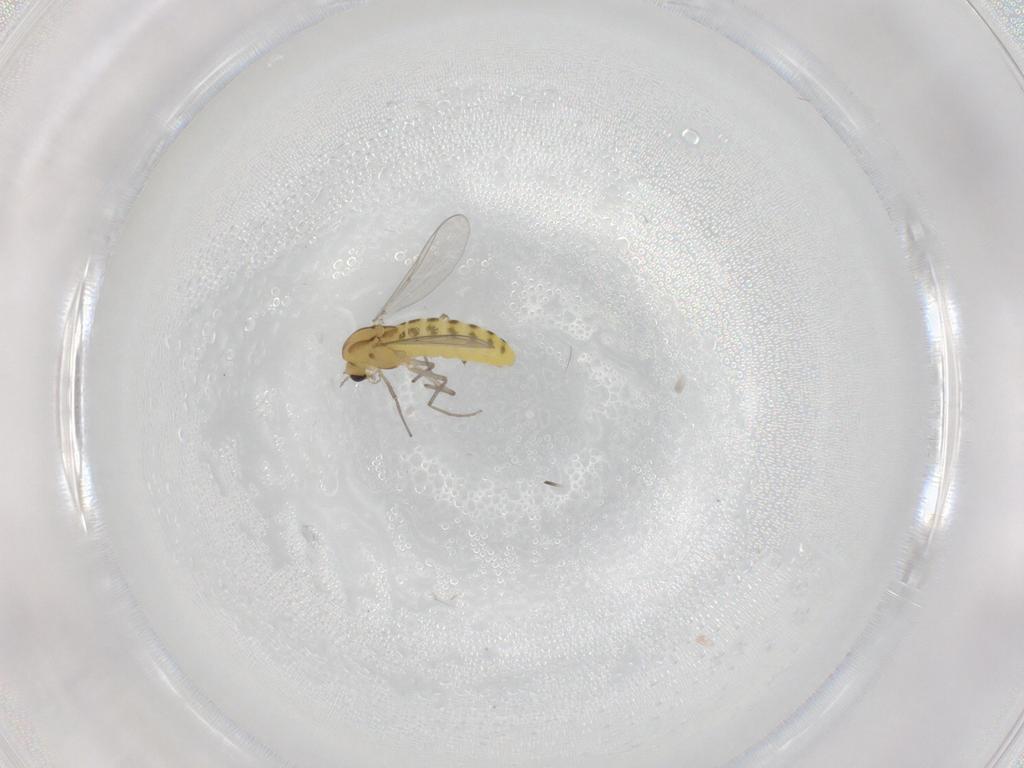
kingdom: Animalia
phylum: Arthropoda
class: Insecta
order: Diptera
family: Chironomidae
